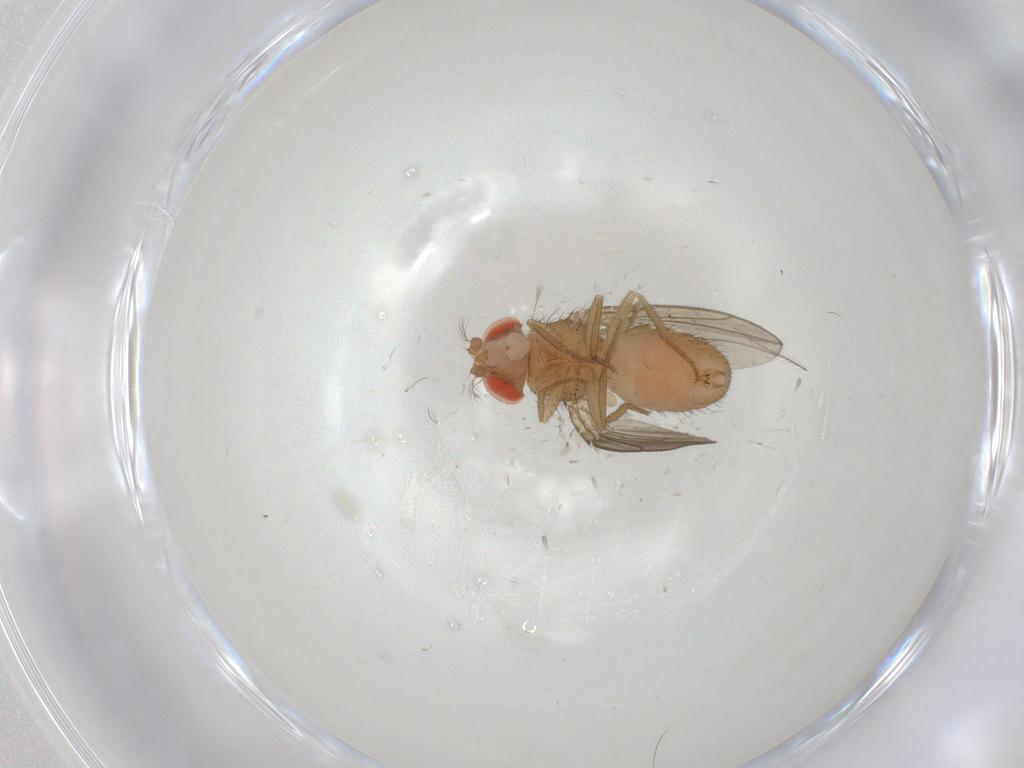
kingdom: Animalia
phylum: Arthropoda
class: Insecta
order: Diptera
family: Drosophilidae
